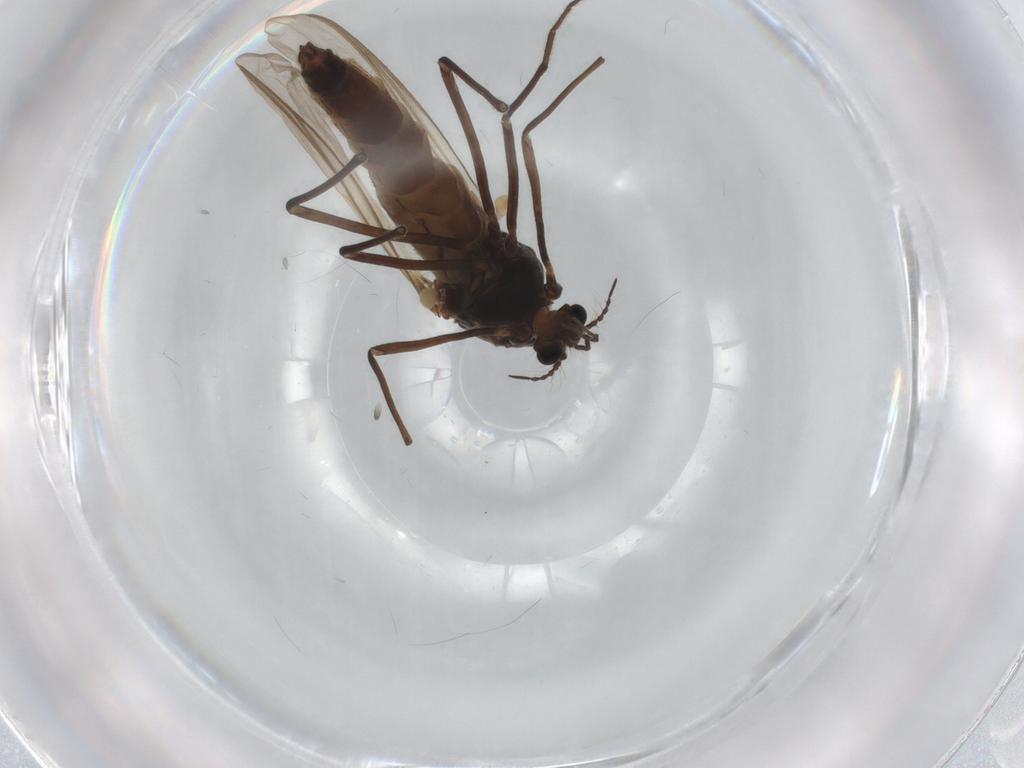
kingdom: Animalia
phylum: Arthropoda
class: Insecta
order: Diptera
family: Chironomidae
